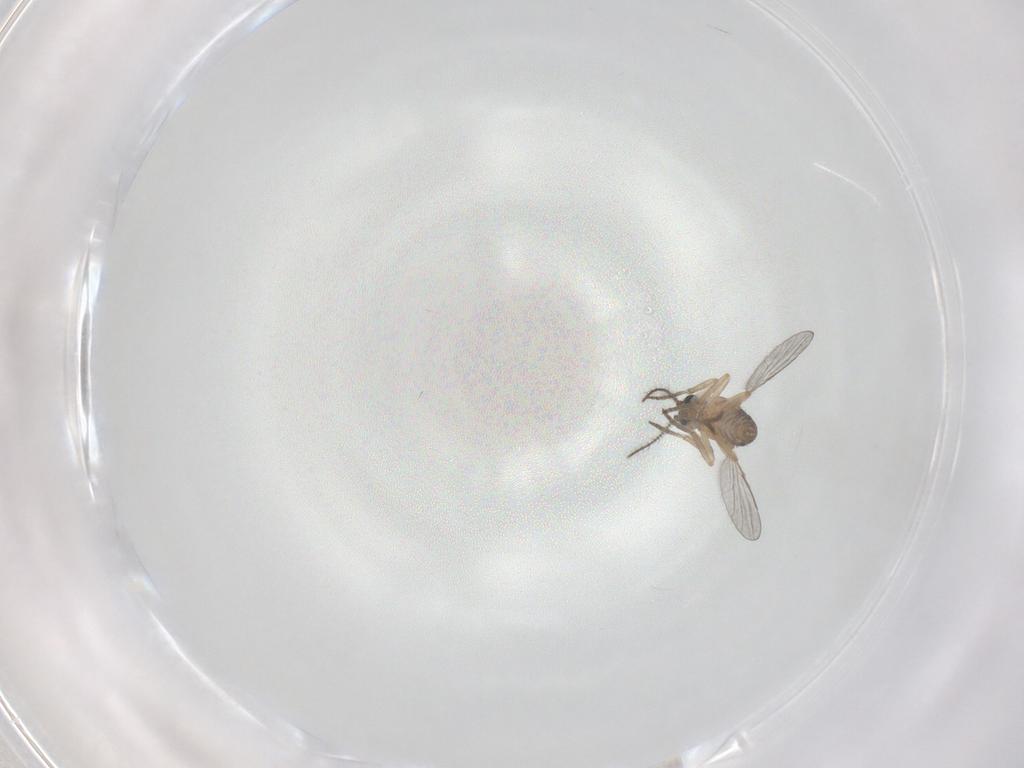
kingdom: Animalia
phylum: Arthropoda
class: Insecta
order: Diptera
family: Ceratopogonidae
